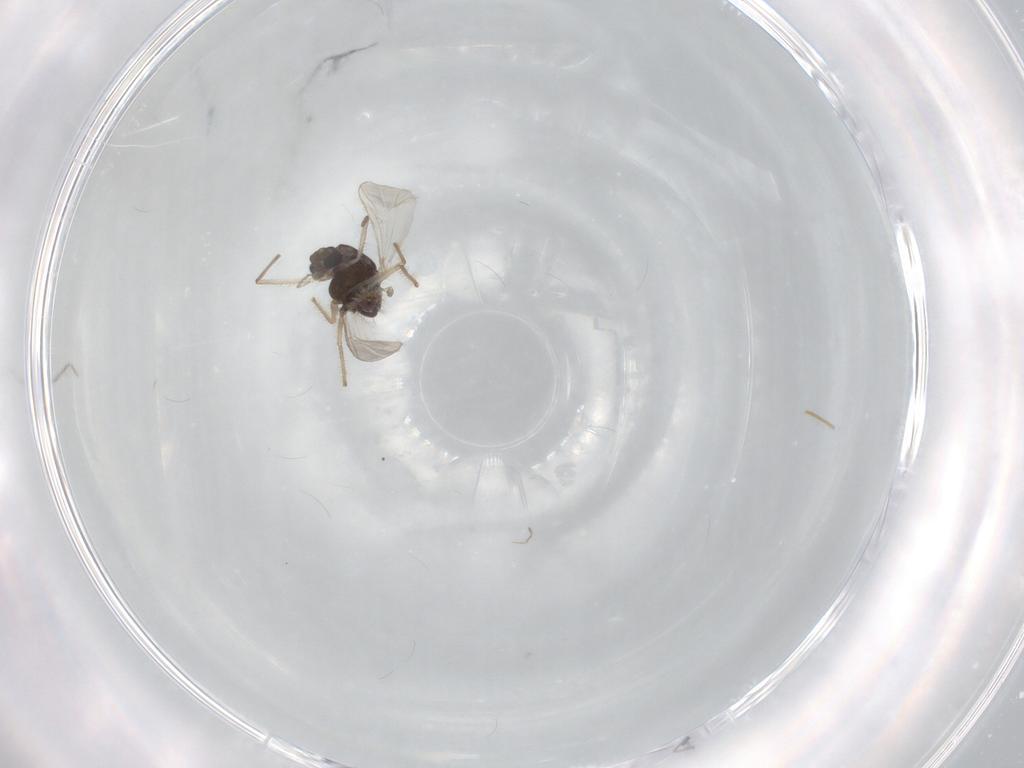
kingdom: Animalia
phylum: Arthropoda
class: Insecta
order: Diptera
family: Chironomidae
